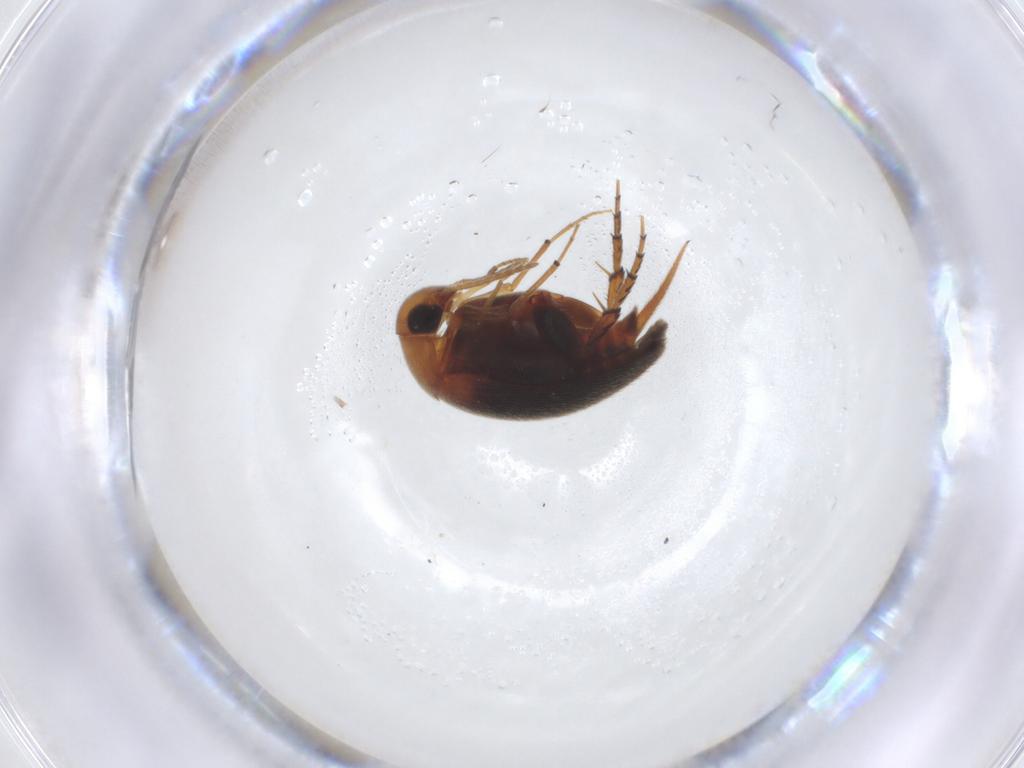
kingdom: Animalia
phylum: Arthropoda
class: Insecta
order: Coleoptera
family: Mordellidae
